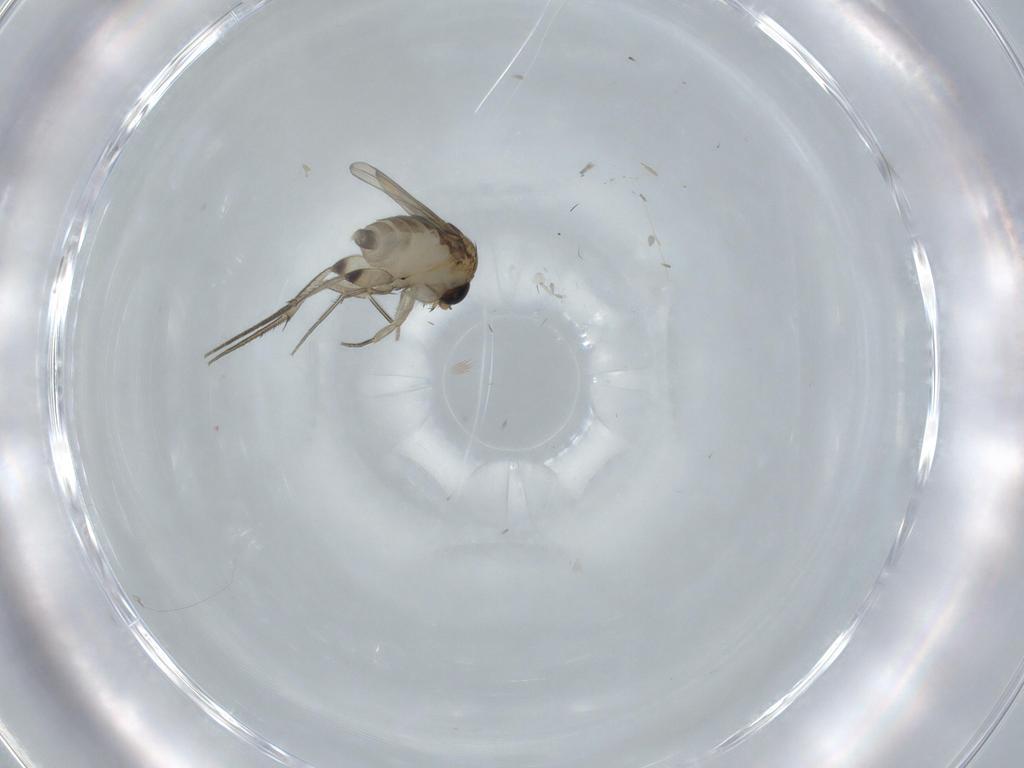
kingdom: Animalia
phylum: Arthropoda
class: Insecta
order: Diptera
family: Phoridae
